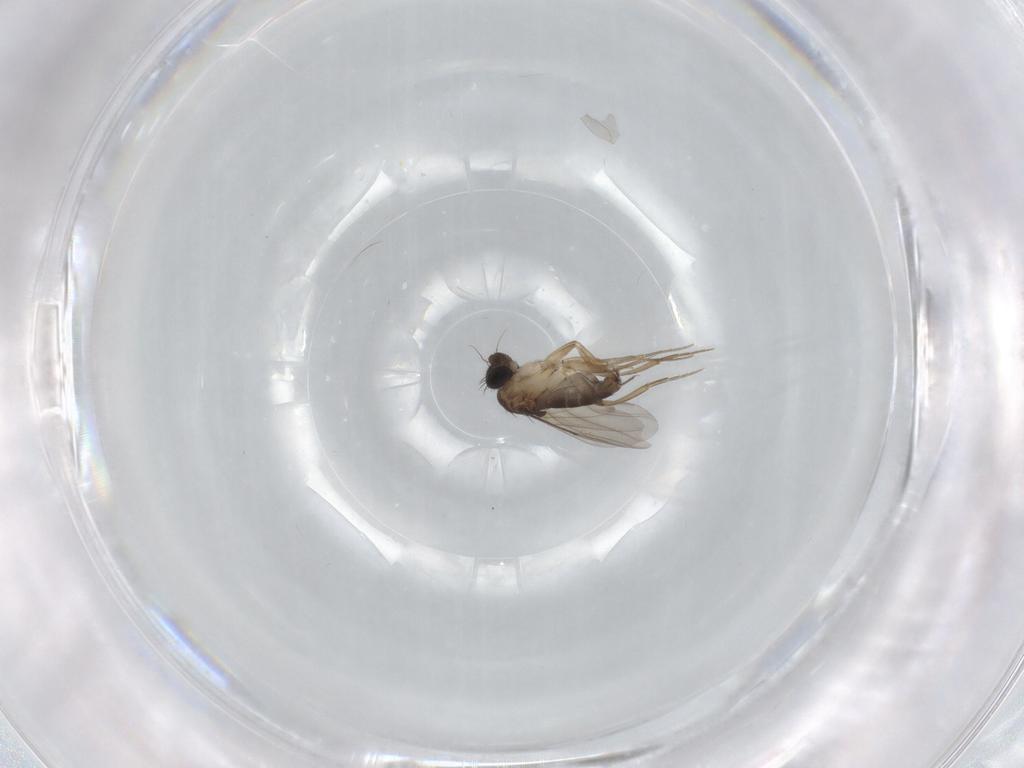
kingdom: Animalia
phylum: Arthropoda
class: Insecta
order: Diptera
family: Phoridae
